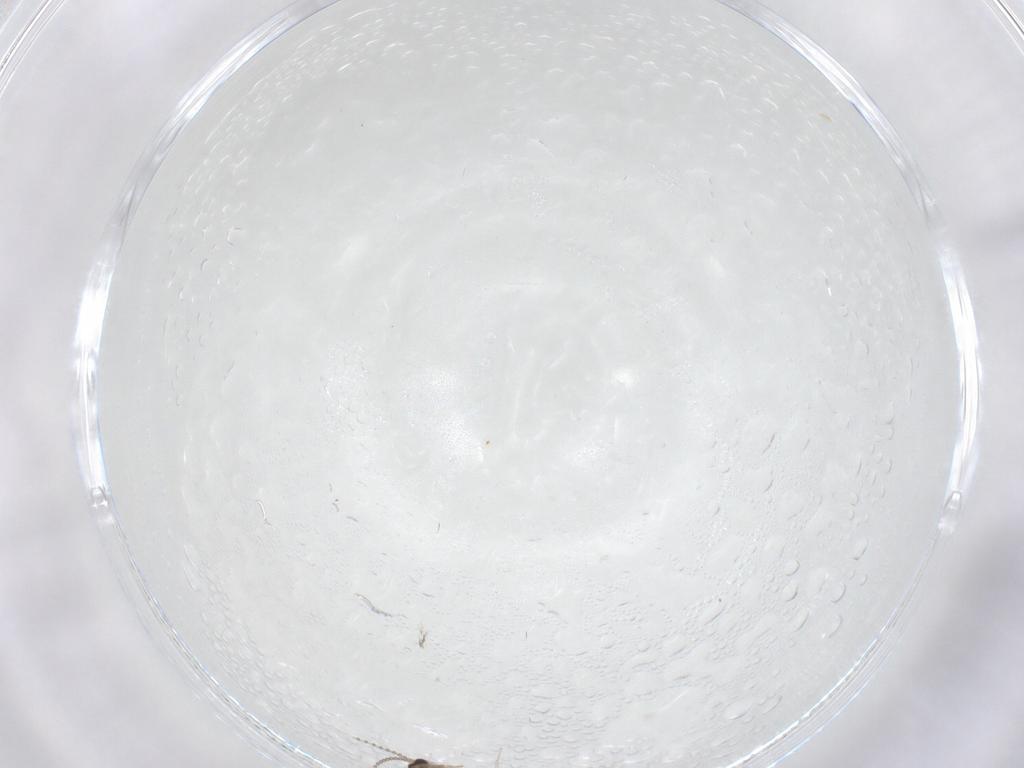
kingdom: Animalia
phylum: Arthropoda
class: Insecta
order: Diptera
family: Cecidomyiidae
